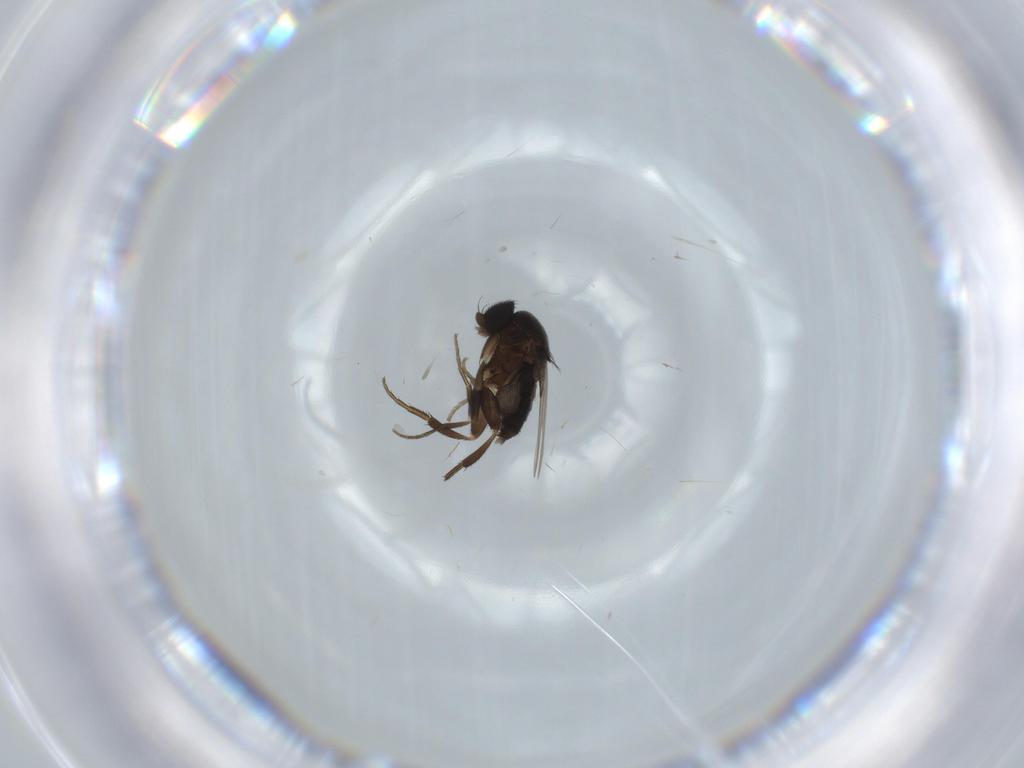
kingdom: Animalia
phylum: Arthropoda
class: Insecta
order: Diptera
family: Phoridae
